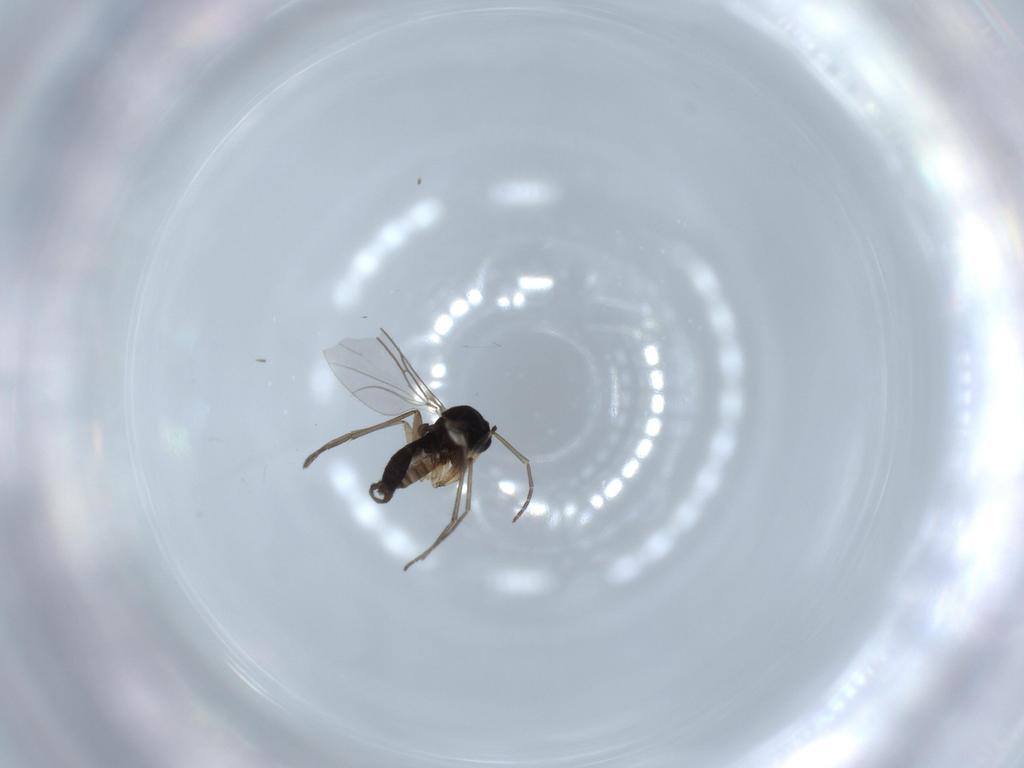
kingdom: Animalia
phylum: Arthropoda
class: Insecta
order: Diptera
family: Sciaridae
